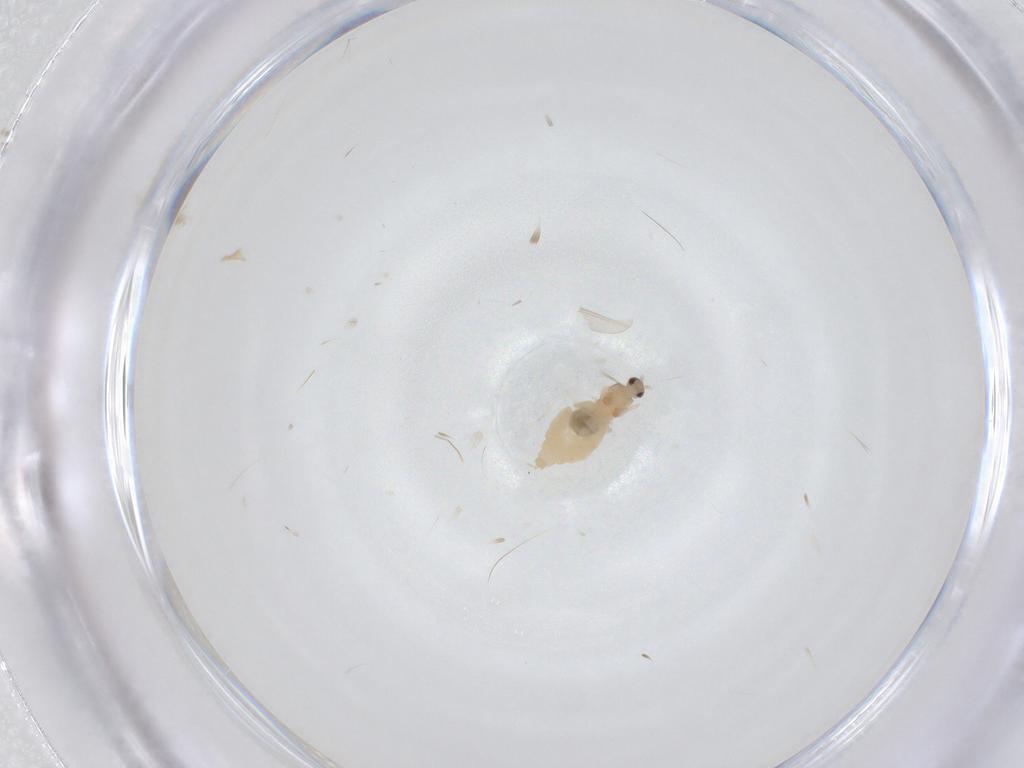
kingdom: Animalia
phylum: Arthropoda
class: Insecta
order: Diptera
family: Cecidomyiidae
